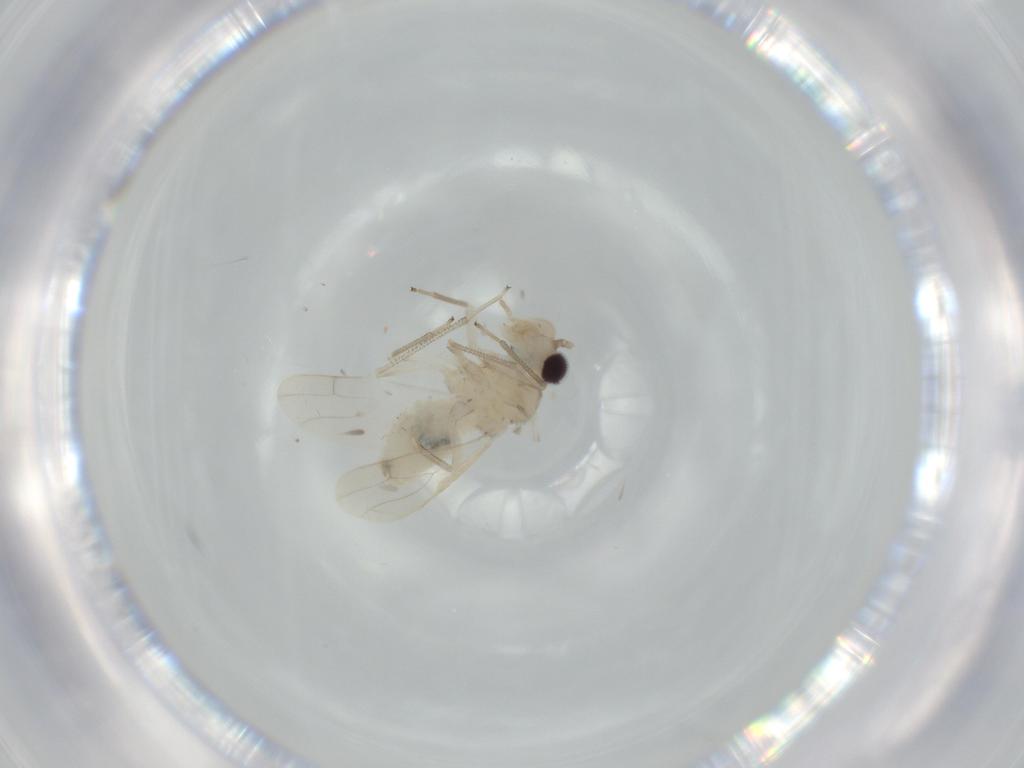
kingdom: Animalia
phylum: Arthropoda
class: Insecta
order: Psocodea
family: Caeciliusidae
